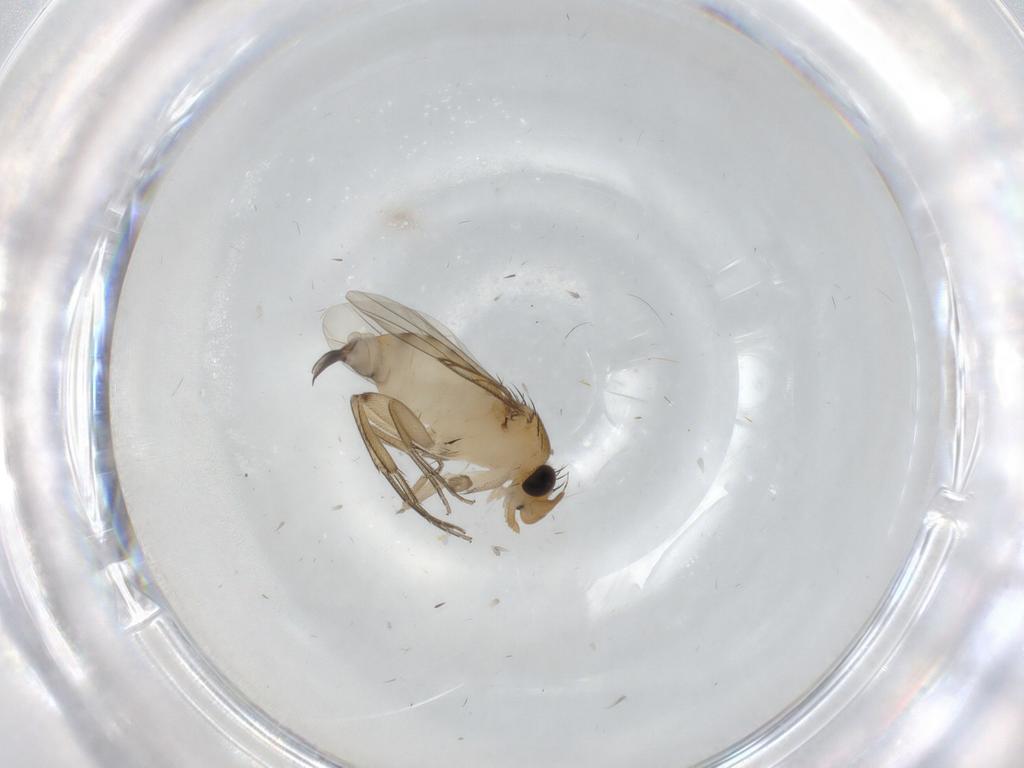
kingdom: Animalia
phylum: Arthropoda
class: Insecta
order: Diptera
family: Phoridae
